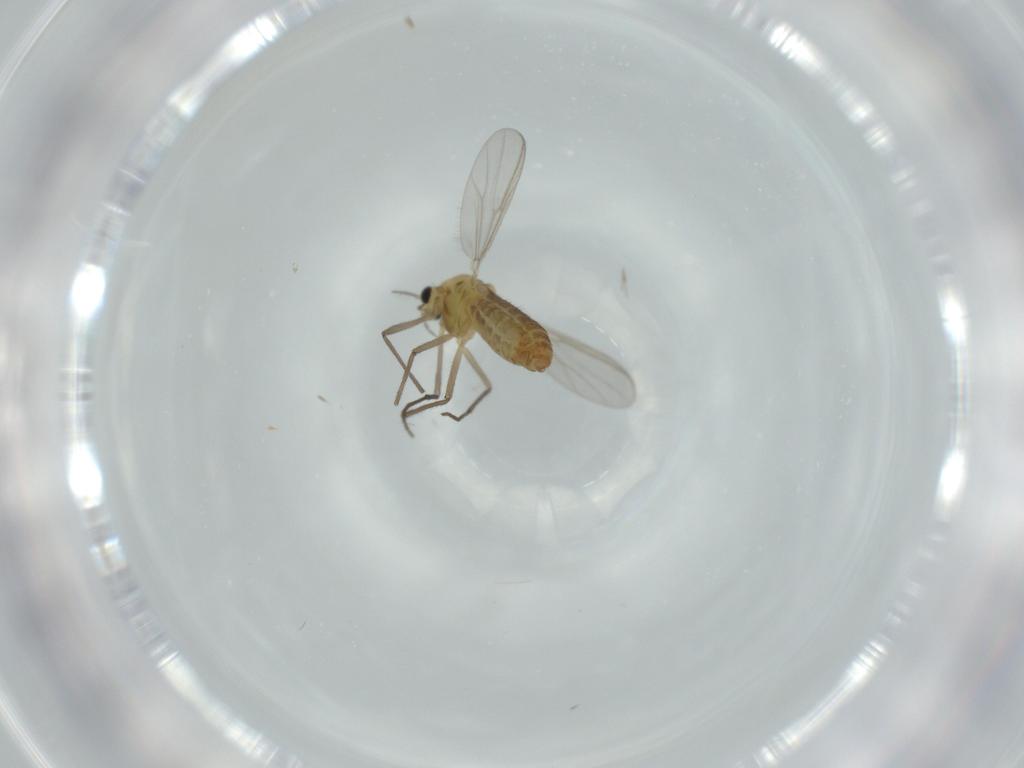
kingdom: Animalia
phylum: Arthropoda
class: Insecta
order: Diptera
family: Chironomidae
